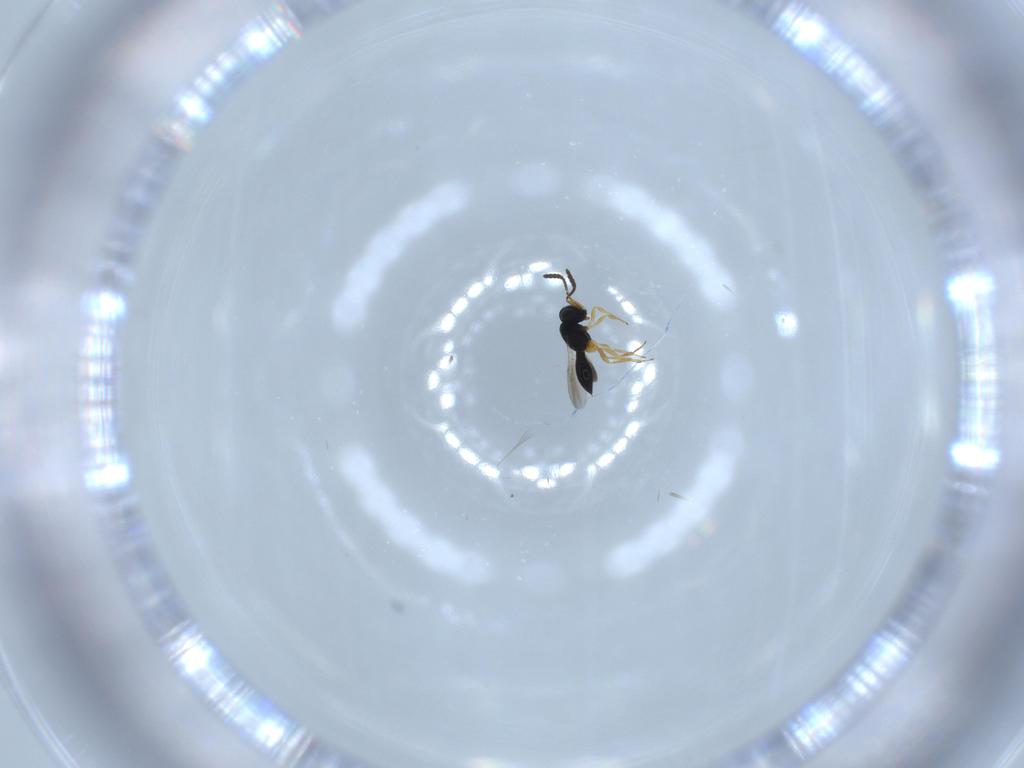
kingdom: Animalia
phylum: Arthropoda
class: Insecta
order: Hymenoptera
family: Scelionidae
